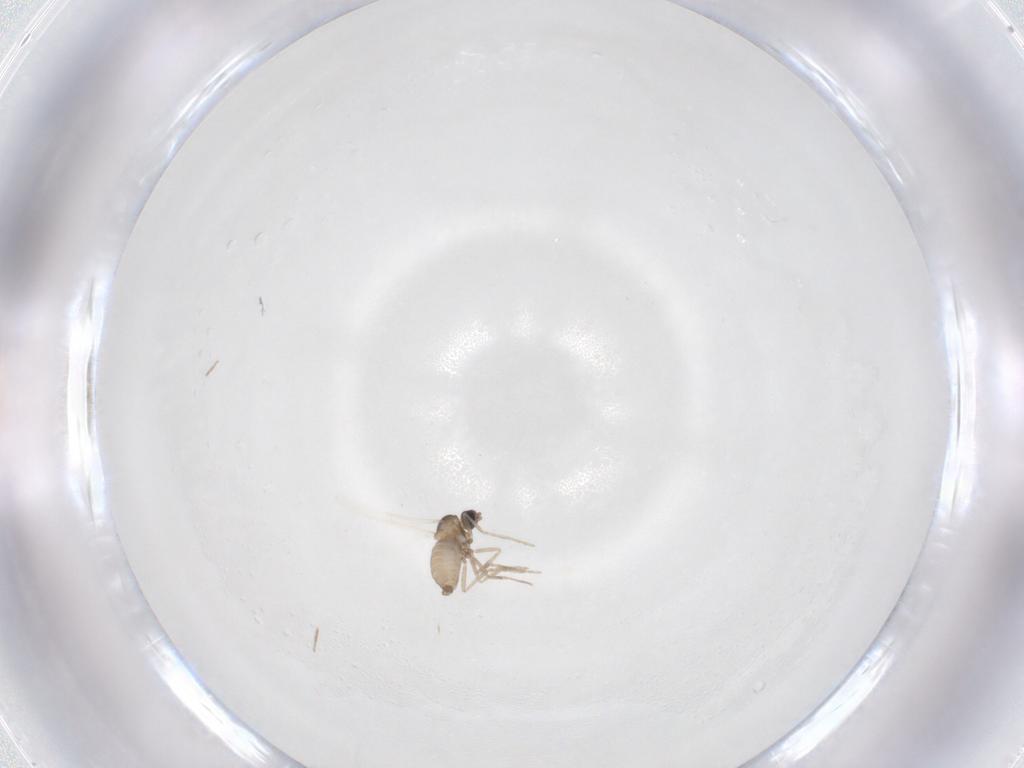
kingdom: Animalia
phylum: Arthropoda
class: Insecta
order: Diptera
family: Cecidomyiidae
